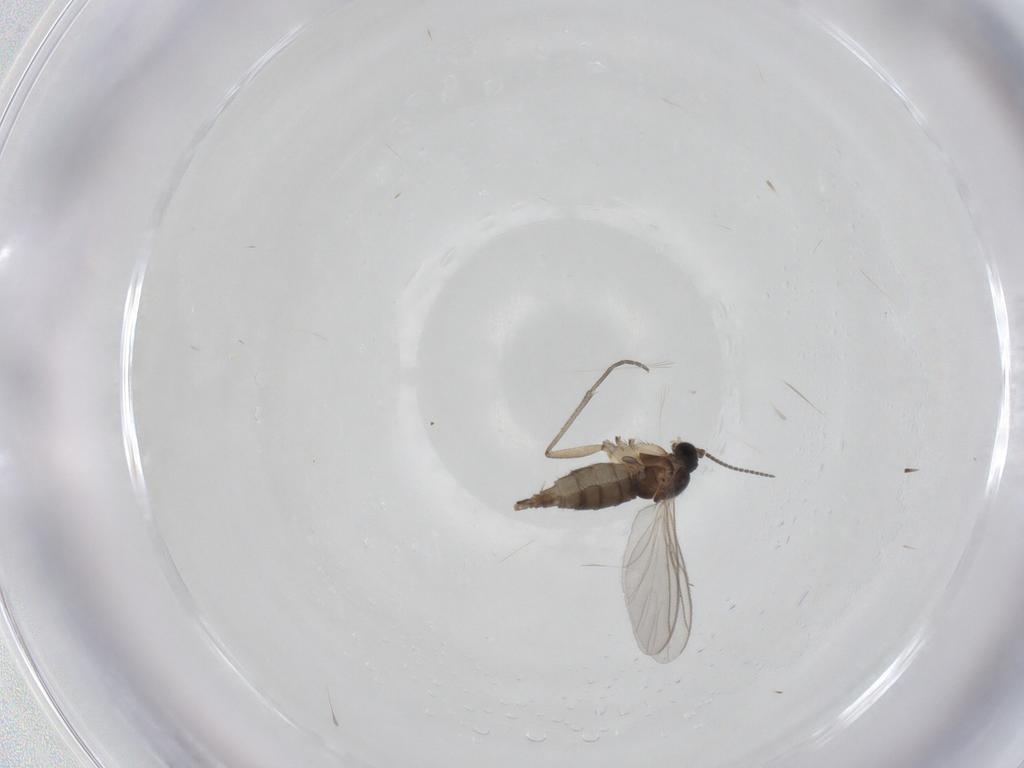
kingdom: Animalia
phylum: Arthropoda
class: Insecta
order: Diptera
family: Sciaridae
